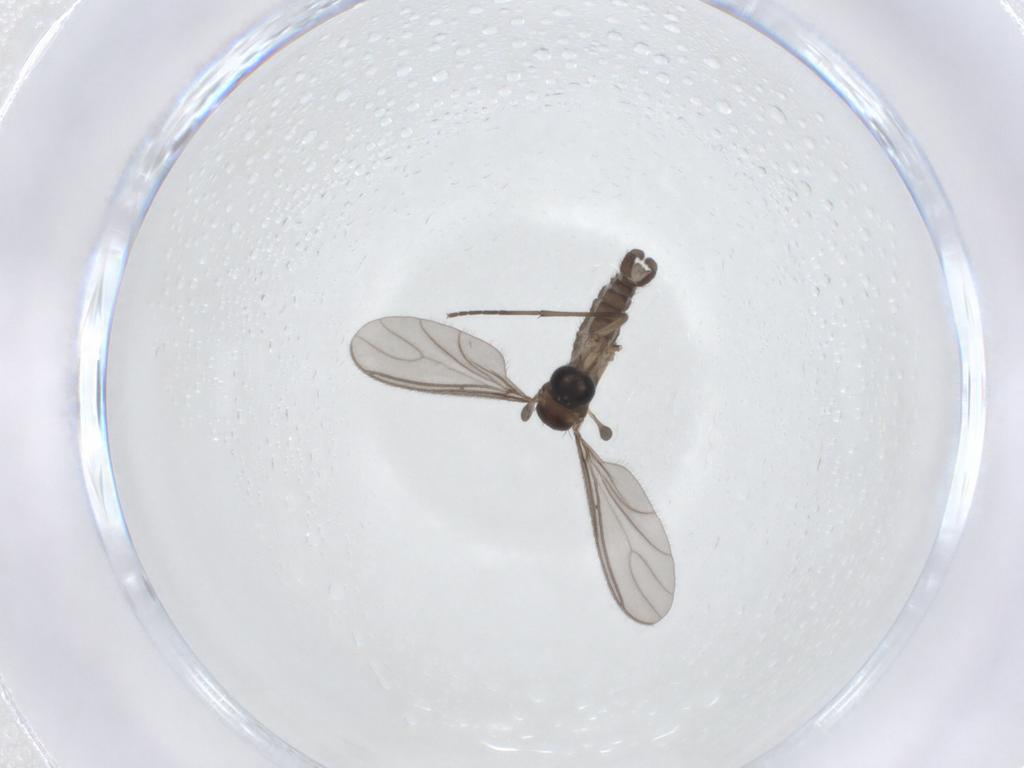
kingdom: Animalia
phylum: Arthropoda
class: Insecta
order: Diptera
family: Sciaridae
